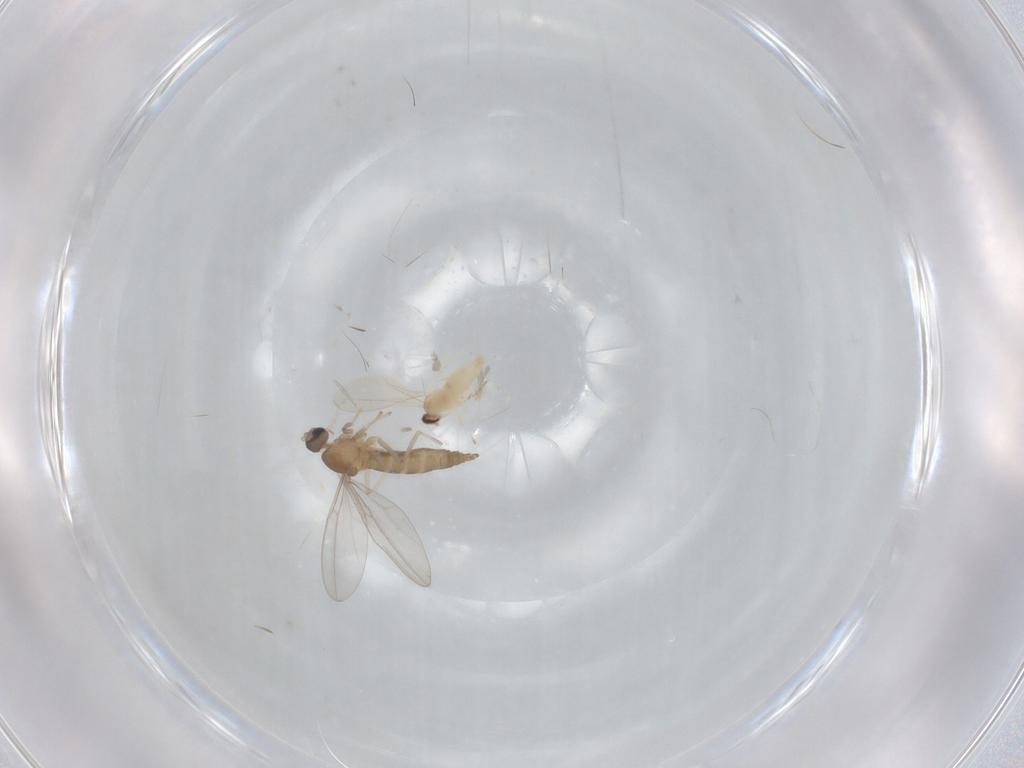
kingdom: Animalia
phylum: Arthropoda
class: Insecta
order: Diptera
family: Cecidomyiidae
